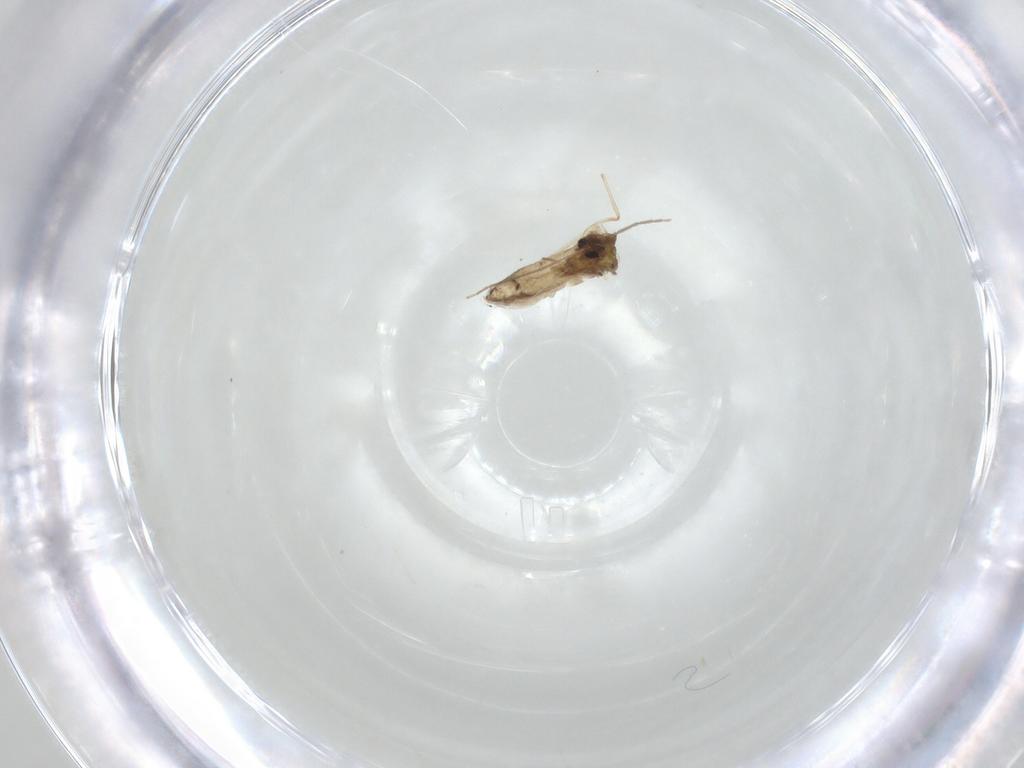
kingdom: Animalia
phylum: Arthropoda
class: Insecta
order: Diptera
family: Chironomidae
